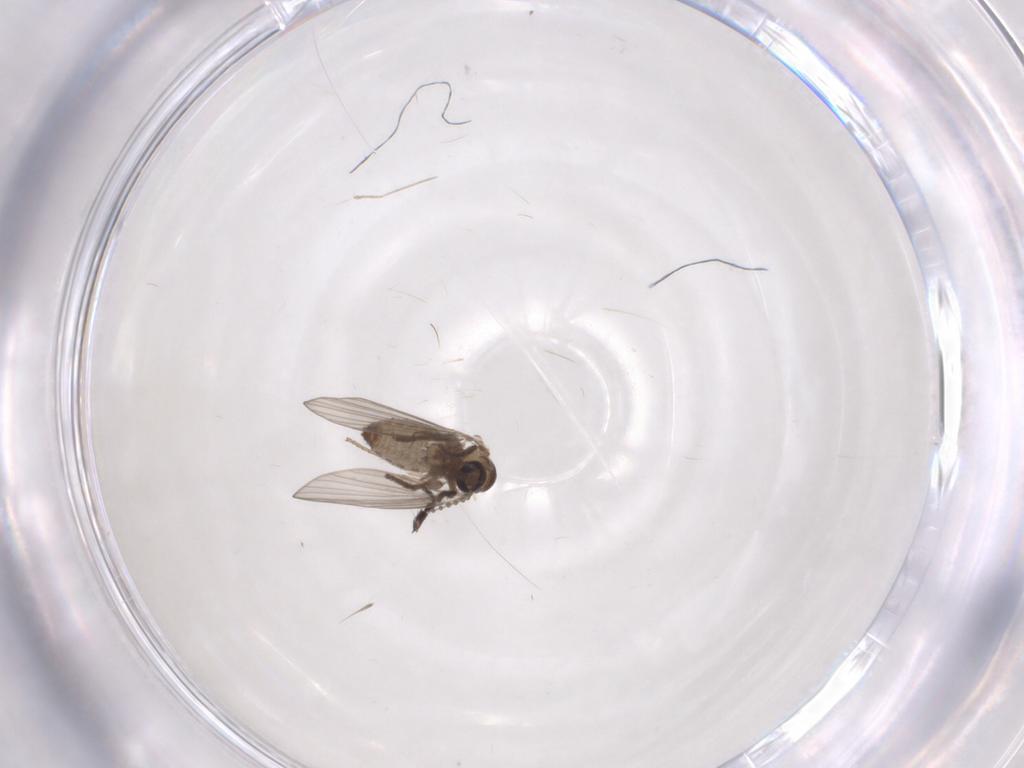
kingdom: Animalia
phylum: Arthropoda
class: Insecta
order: Diptera
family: Psychodidae
